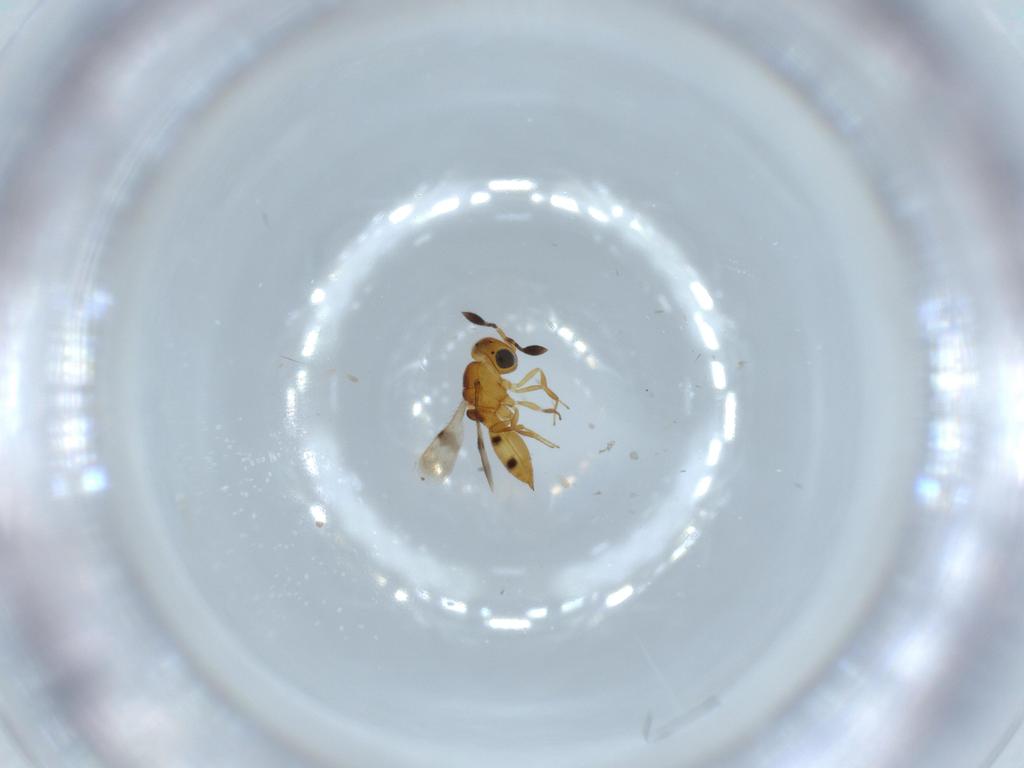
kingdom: Animalia
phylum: Arthropoda
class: Insecta
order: Hymenoptera
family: Scelionidae
